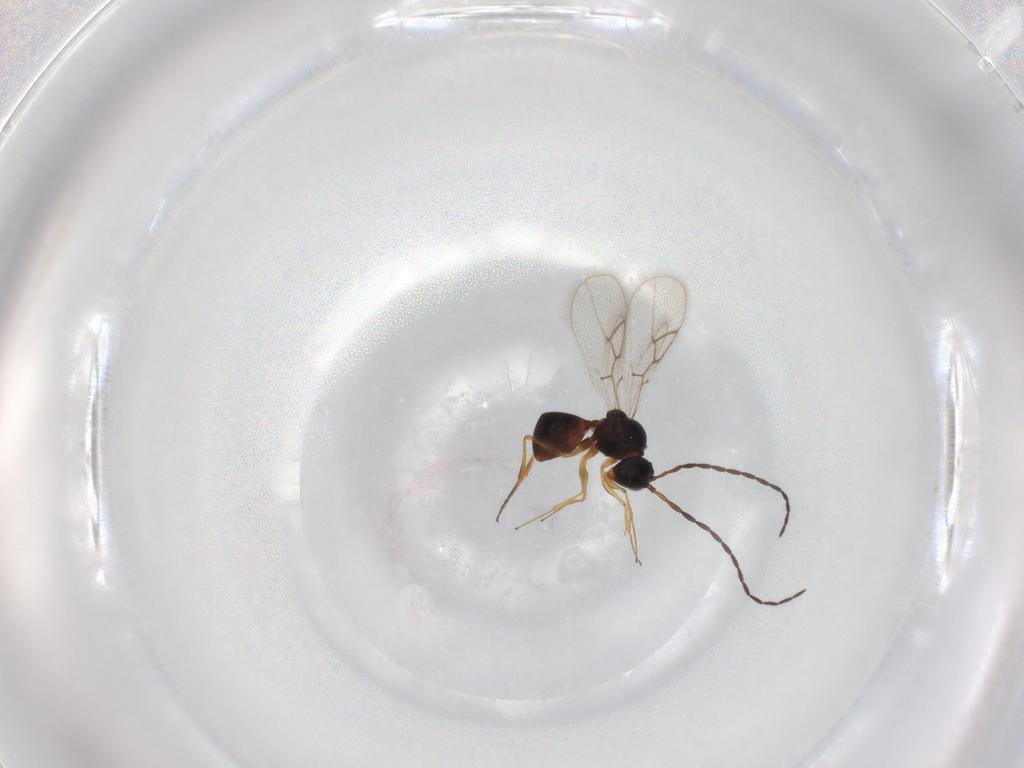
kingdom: Animalia
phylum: Arthropoda
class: Insecta
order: Hymenoptera
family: Figitidae
